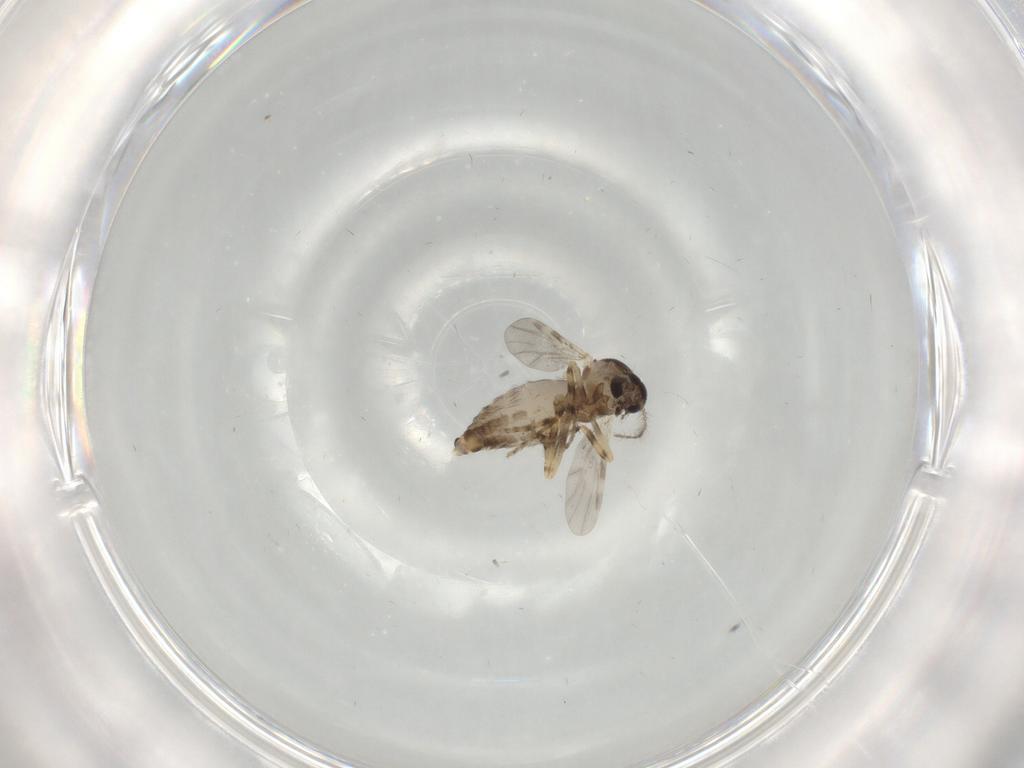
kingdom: Animalia
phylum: Arthropoda
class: Insecta
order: Diptera
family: Ceratopogonidae
